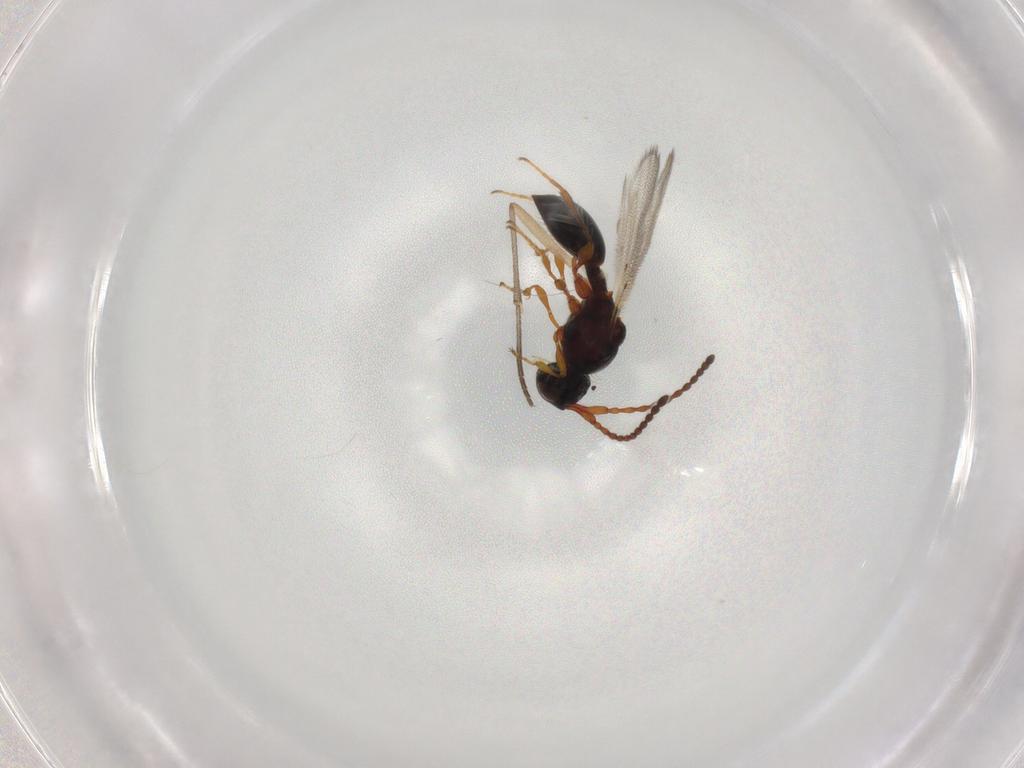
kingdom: Animalia
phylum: Arthropoda
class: Insecta
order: Hymenoptera
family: Diapriidae
